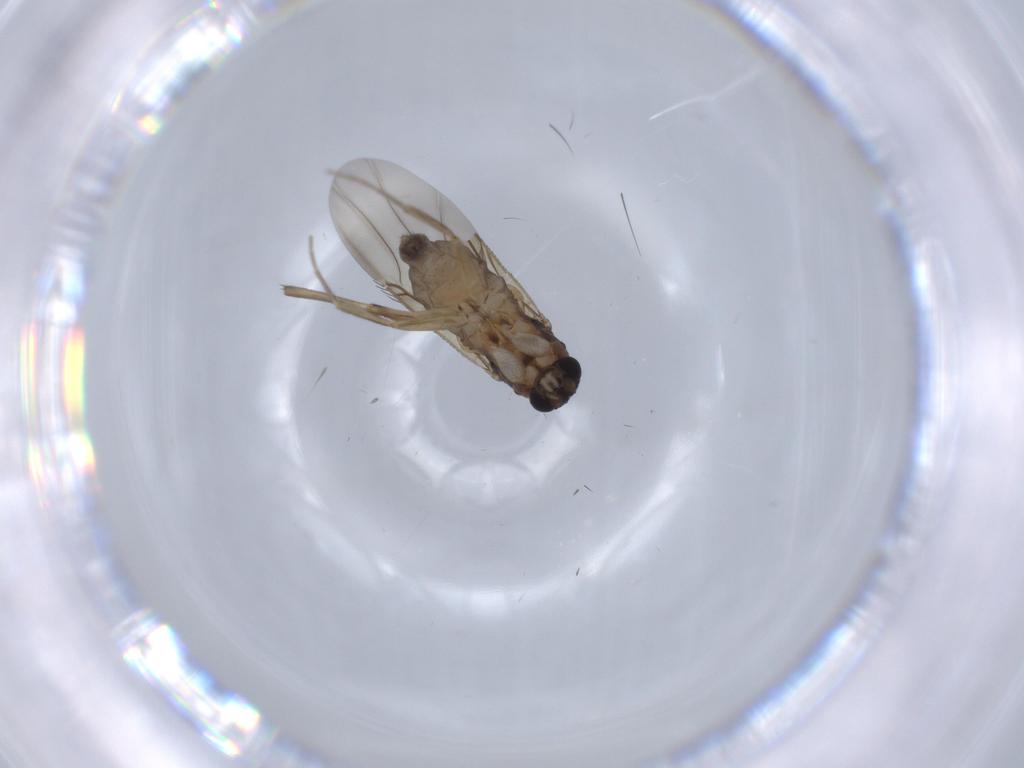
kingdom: Animalia
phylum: Arthropoda
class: Insecta
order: Diptera
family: Phoridae
